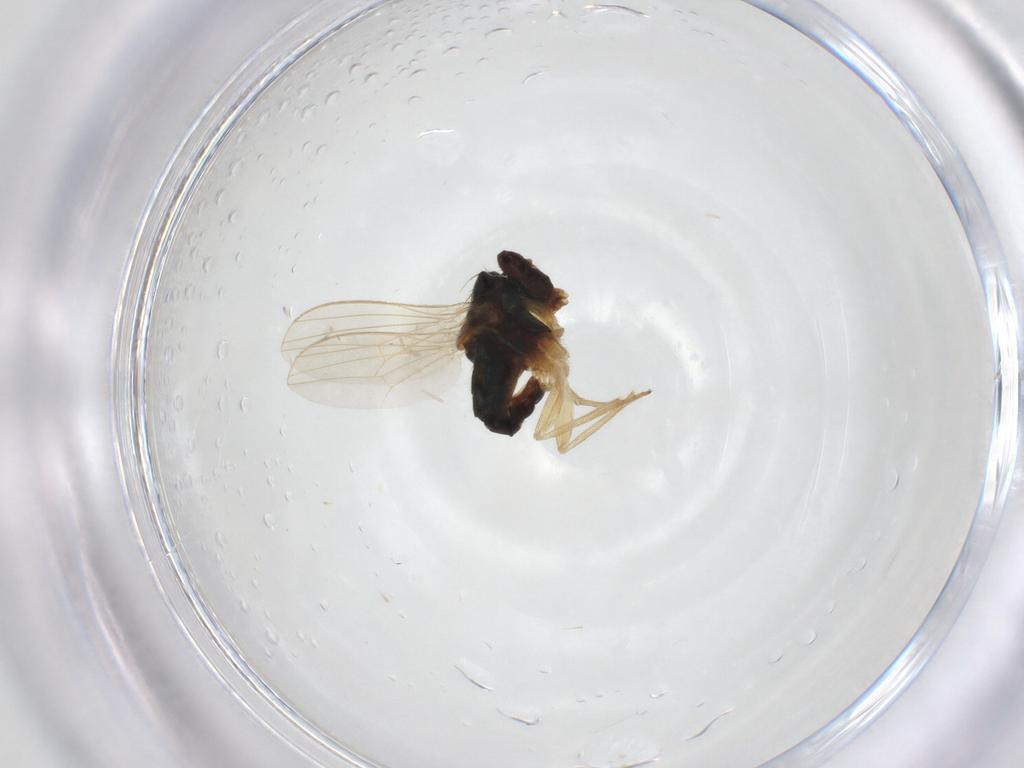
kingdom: Animalia
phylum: Arthropoda
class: Insecta
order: Diptera
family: Dolichopodidae
